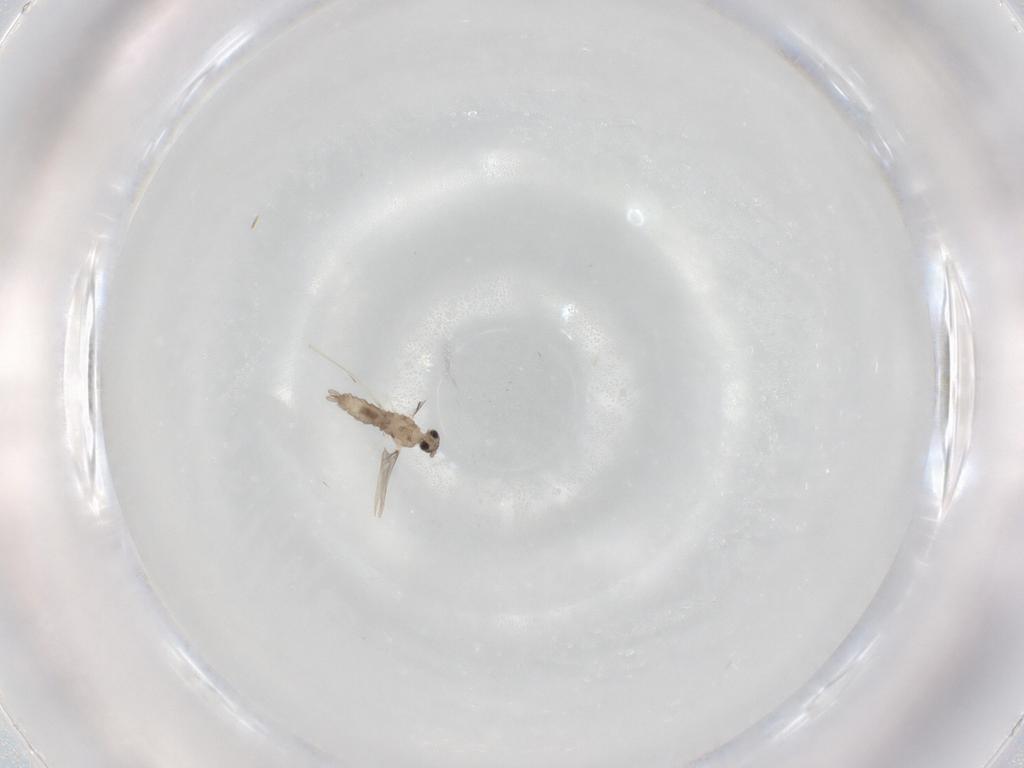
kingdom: Animalia
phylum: Arthropoda
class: Insecta
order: Diptera
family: Cecidomyiidae
